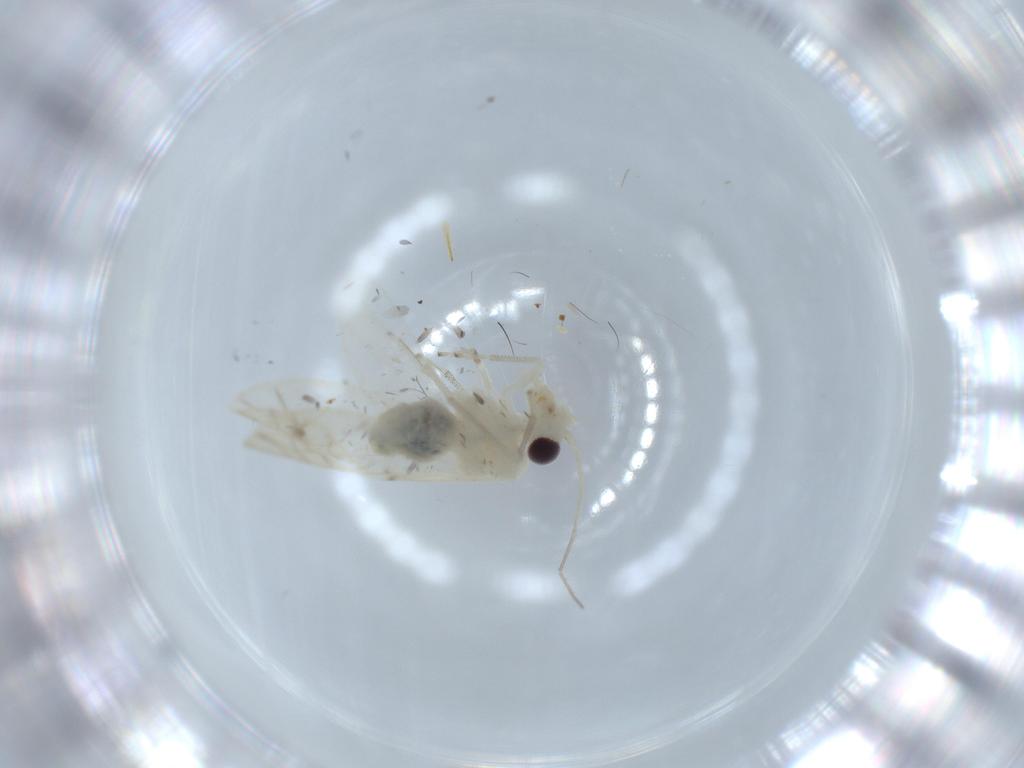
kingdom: Animalia
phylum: Arthropoda
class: Insecta
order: Psocodea
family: Caeciliusidae
